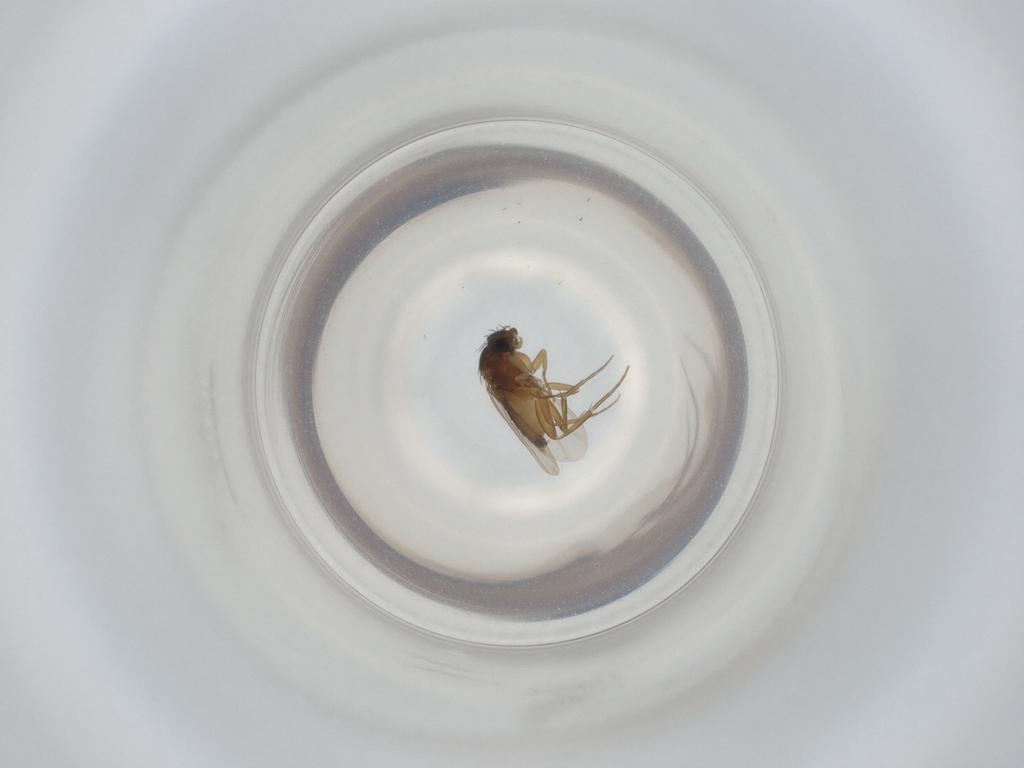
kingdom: Animalia
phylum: Arthropoda
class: Insecta
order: Diptera
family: Phoridae
